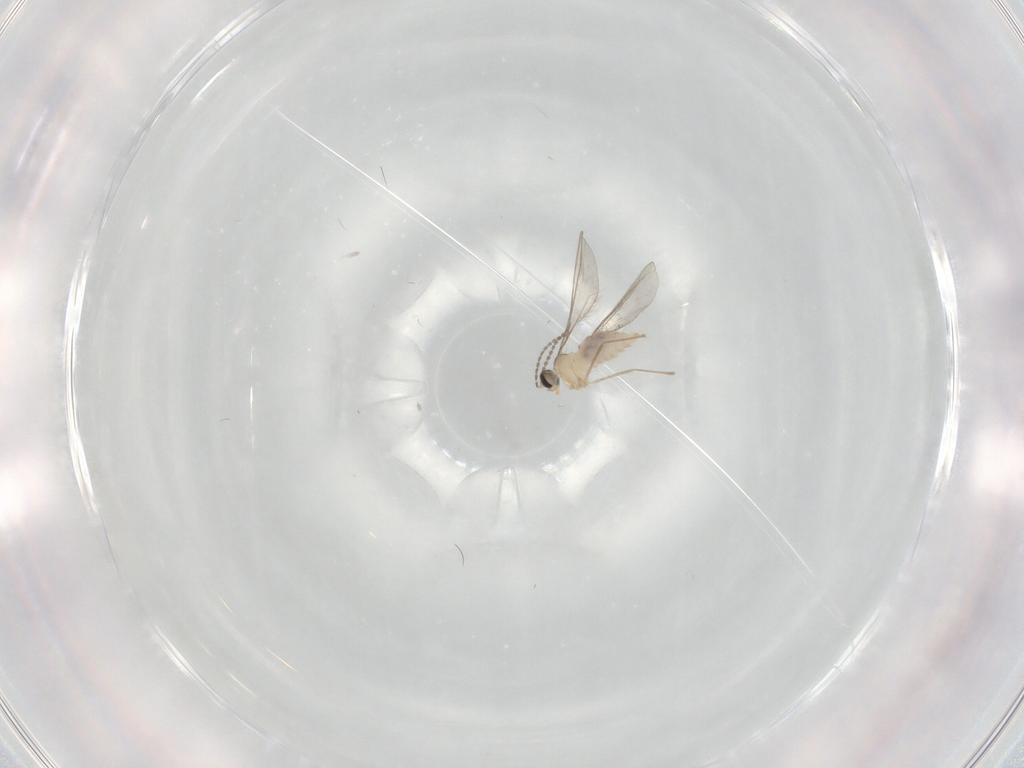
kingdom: Animalia
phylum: Arthropoda
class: Insecta
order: Diptera
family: Cecidomyiidae
